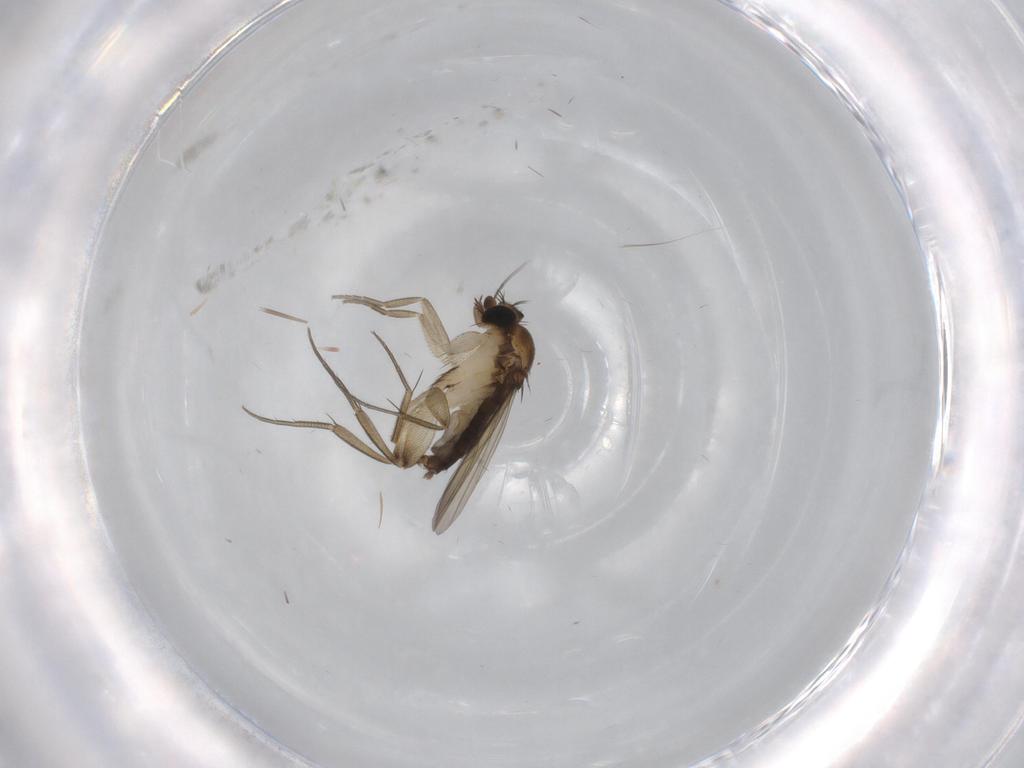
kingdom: Animalia
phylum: Arthropoda
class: Insecta
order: Diptera
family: Phoridae
